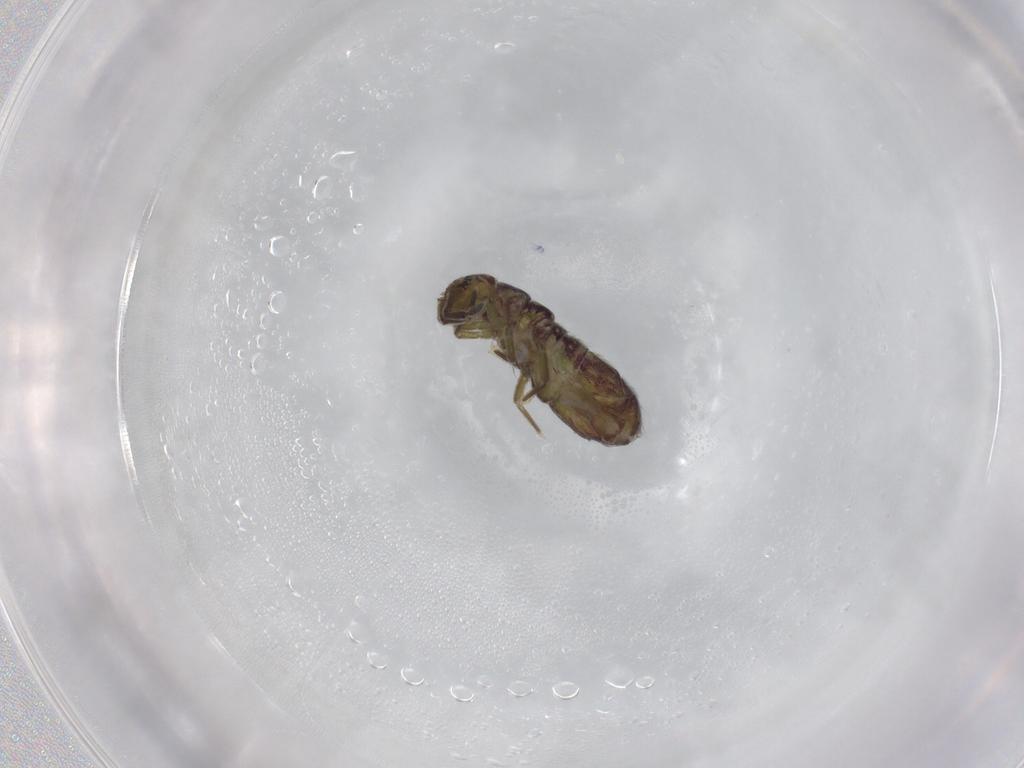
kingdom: Animalia
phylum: Arthropoda
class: Collembola
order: Entomobryomorpha
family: Isotomidae
